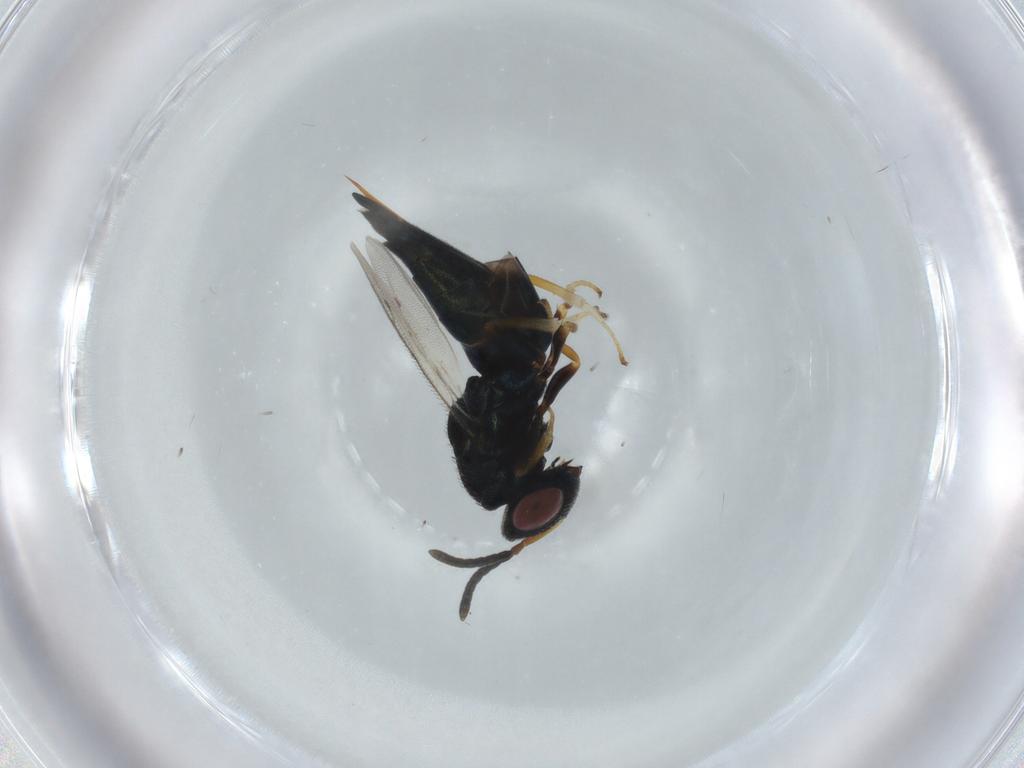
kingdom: Animalia
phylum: Arthropoda
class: Insecta
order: Hymenoptera
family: Pteromalidae
